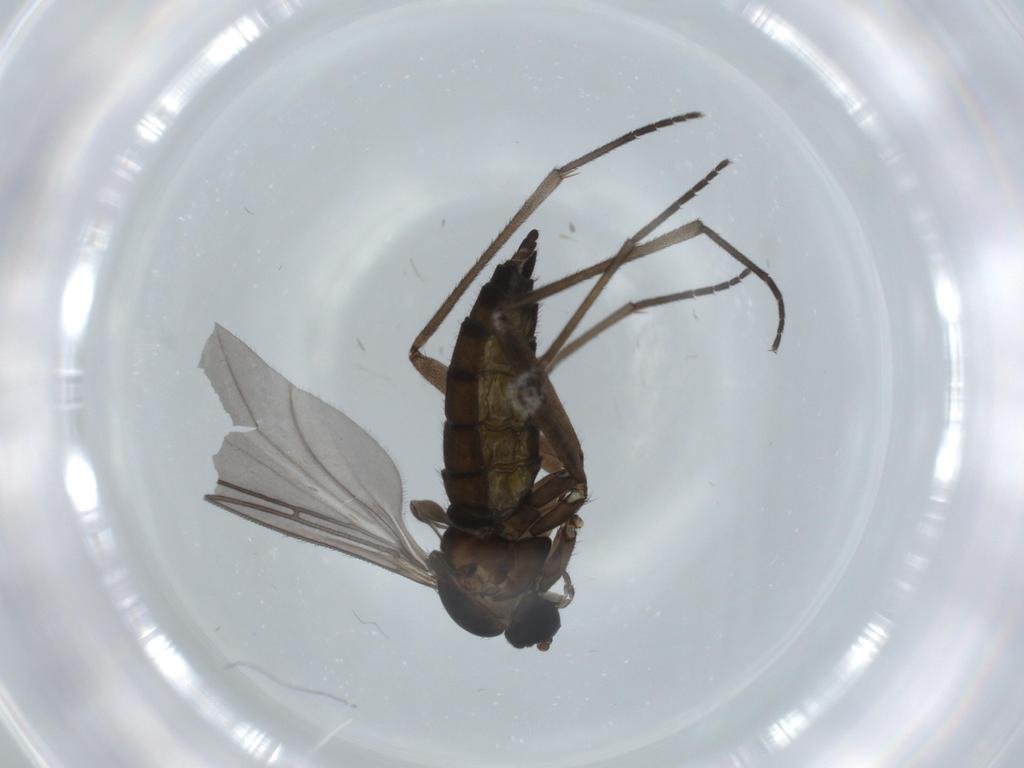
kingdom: Animalia
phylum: Arthropoda
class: Insecta
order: Diptera
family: Sciaridae
